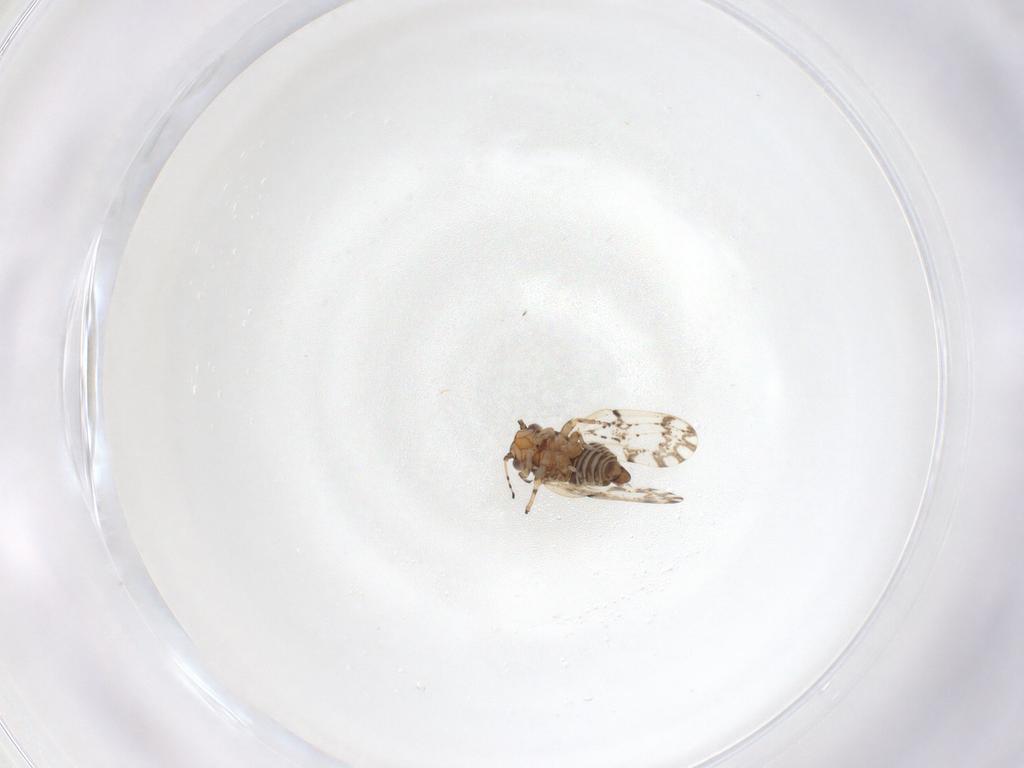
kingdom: Animalia
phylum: Arthropoda
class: Insecta
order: Hemiptera
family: Psylloidea_incertae_sedis
